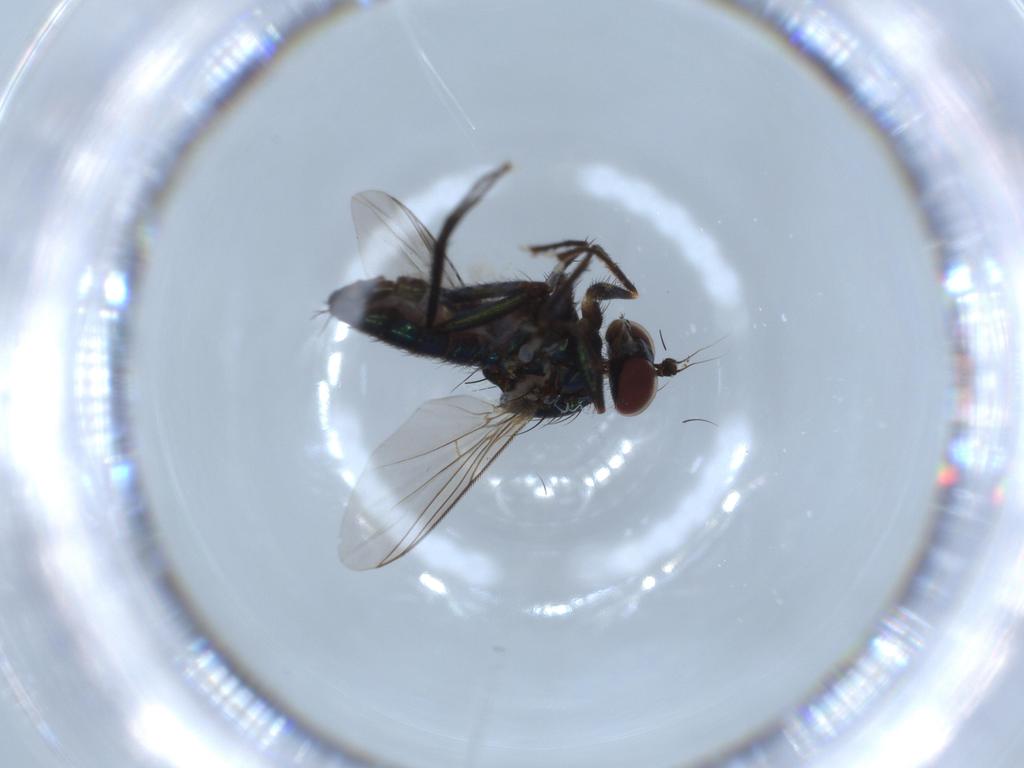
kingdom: Animalia
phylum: Arthropoda
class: Insecta
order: Diptera
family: Dolichopodidae
